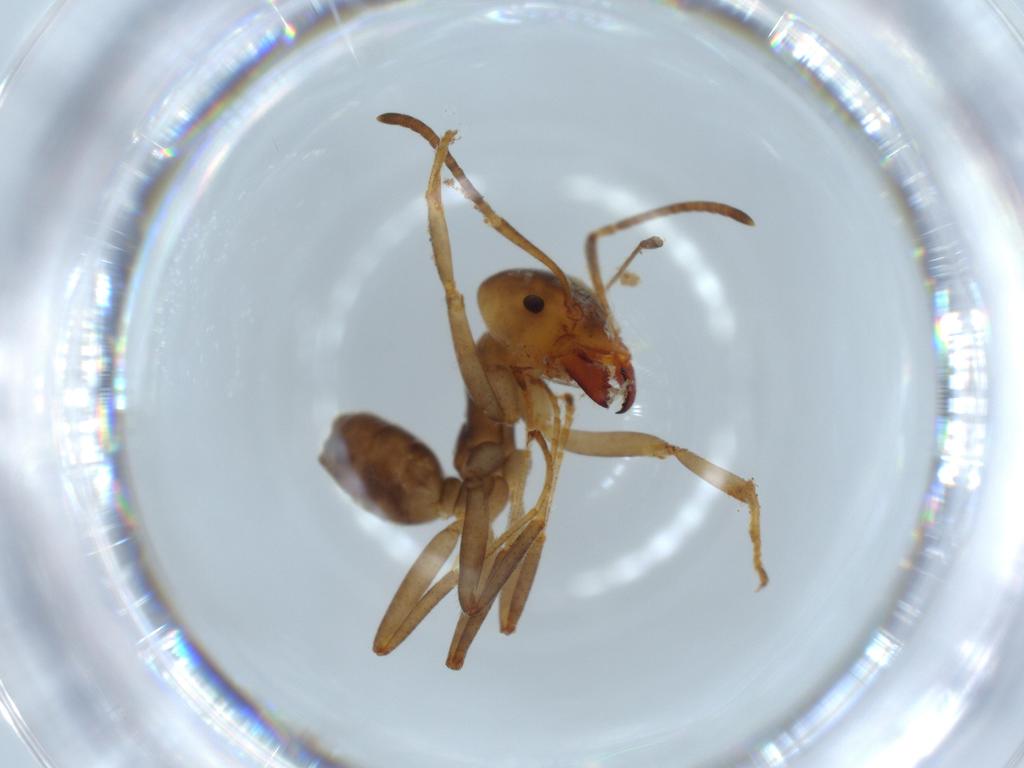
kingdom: Animalia
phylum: Arthropoda
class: Insecta
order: Hymenoptera
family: Formicidae
